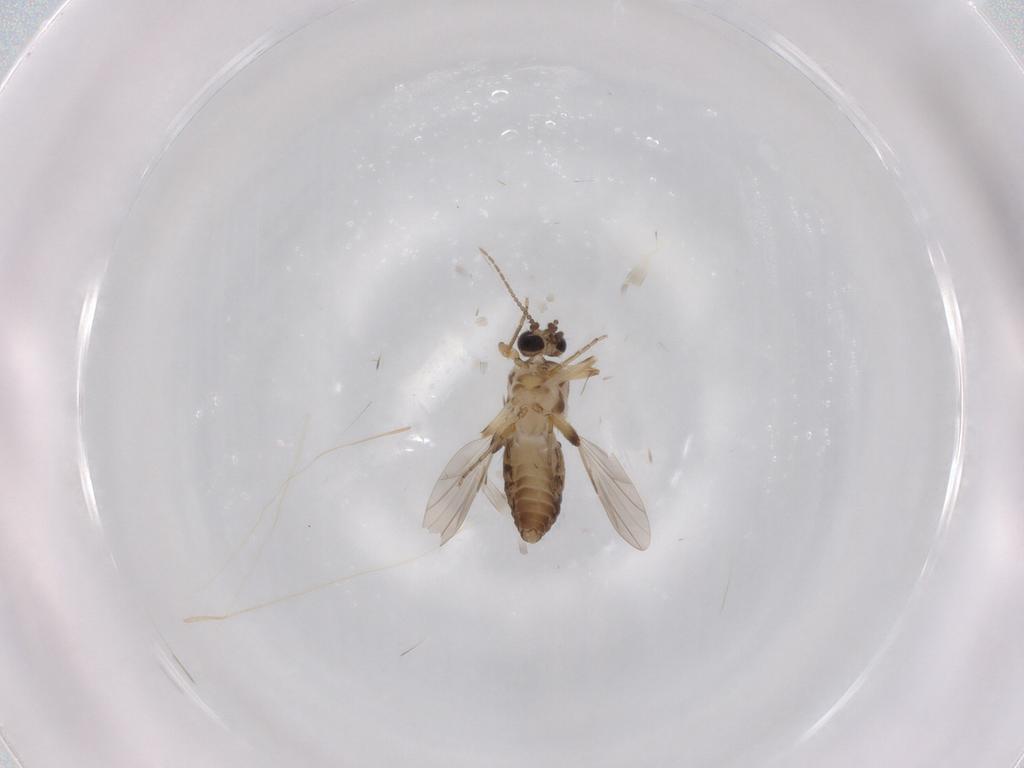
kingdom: Animalia
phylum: Arthropoda
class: Insecta
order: Diptera
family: Ceratopogonidae
